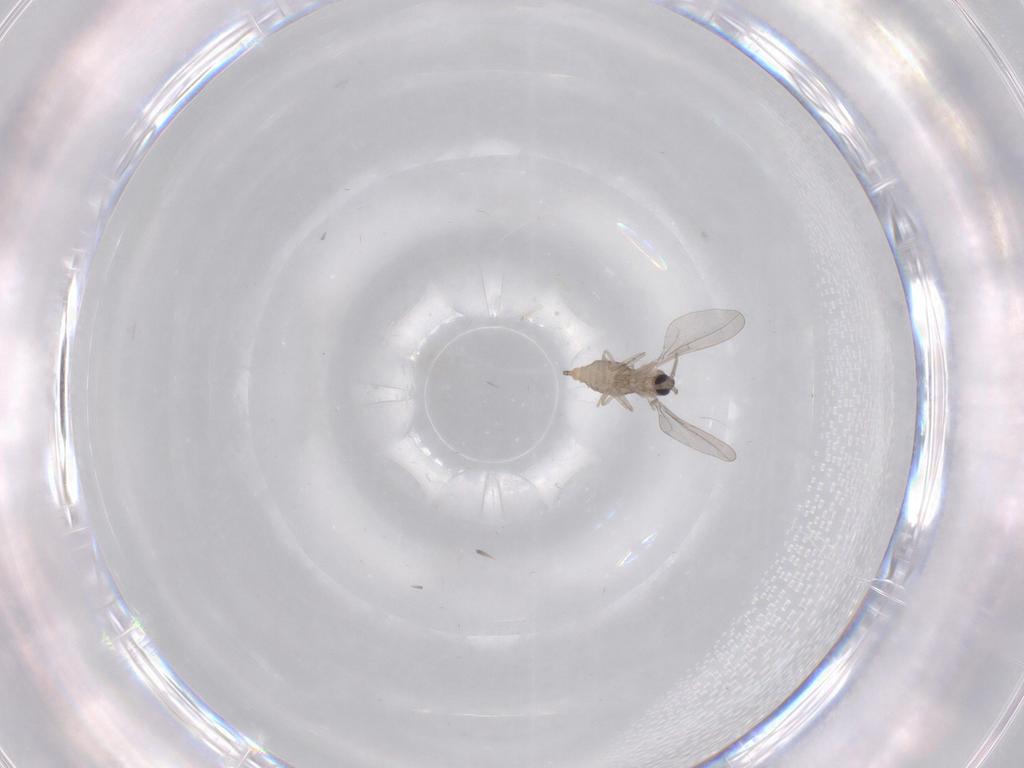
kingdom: Animalia
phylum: Arthropoda
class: Insecta
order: Diptera
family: Cecidomyiidae
